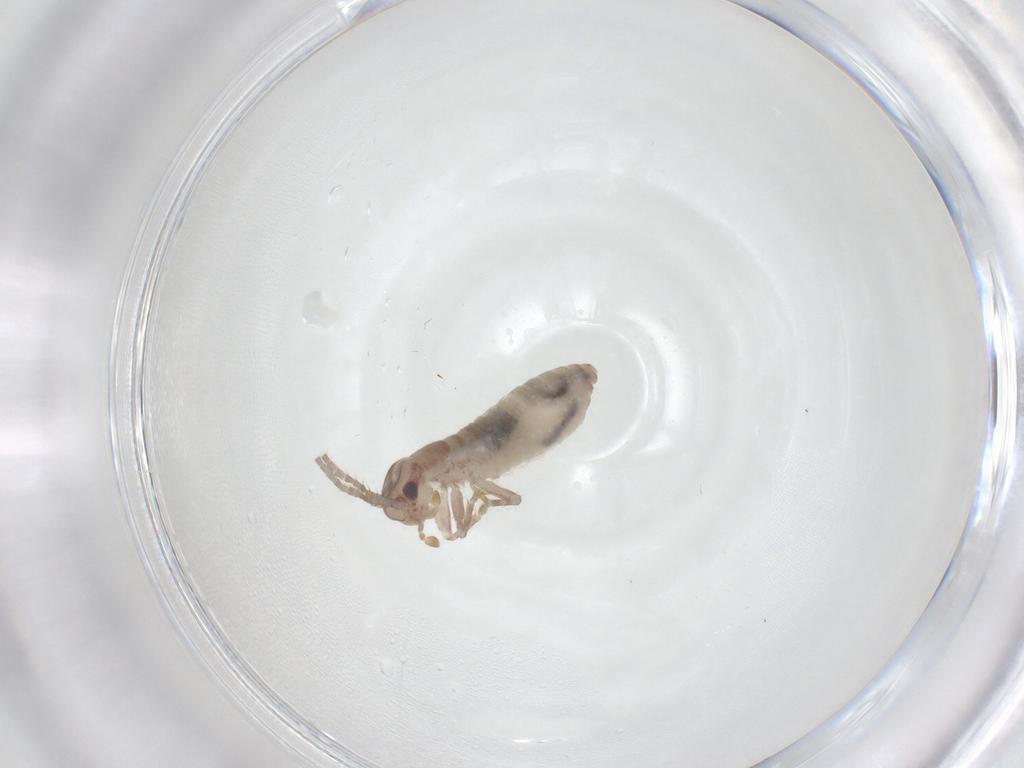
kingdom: Animalia
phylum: Arthropoda
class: Insecta
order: Orthoptera
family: Mogoplistidae
